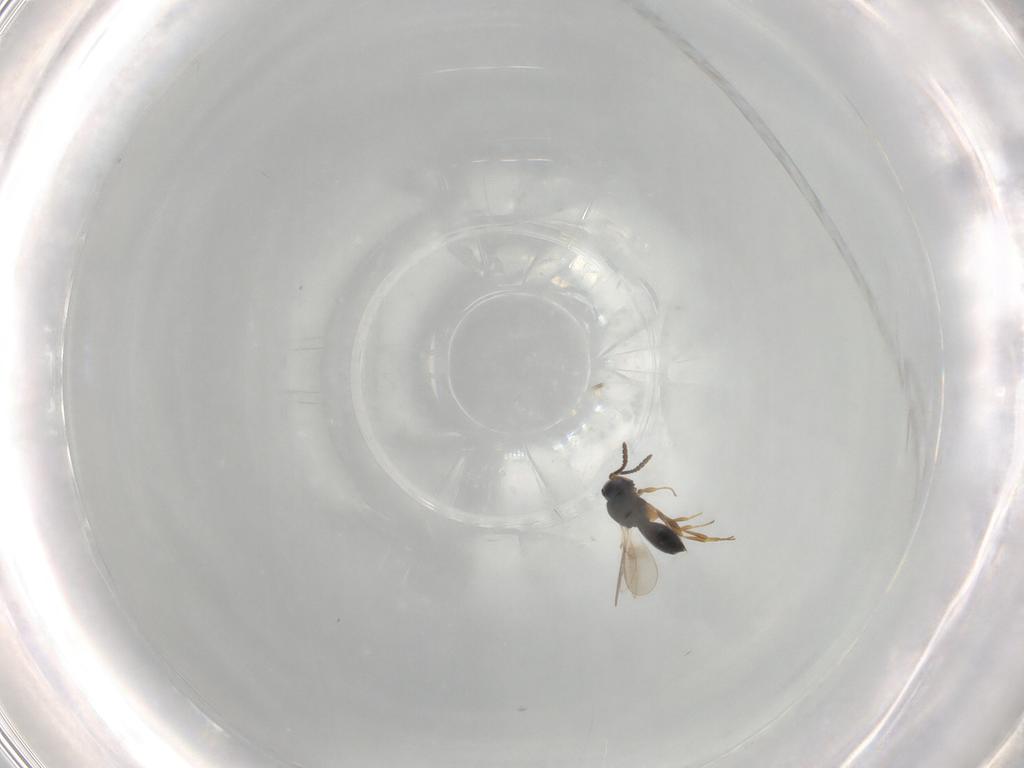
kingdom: Animalia
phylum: Arthropoda
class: Insecta
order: Hymenoptera
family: Scelionidae
